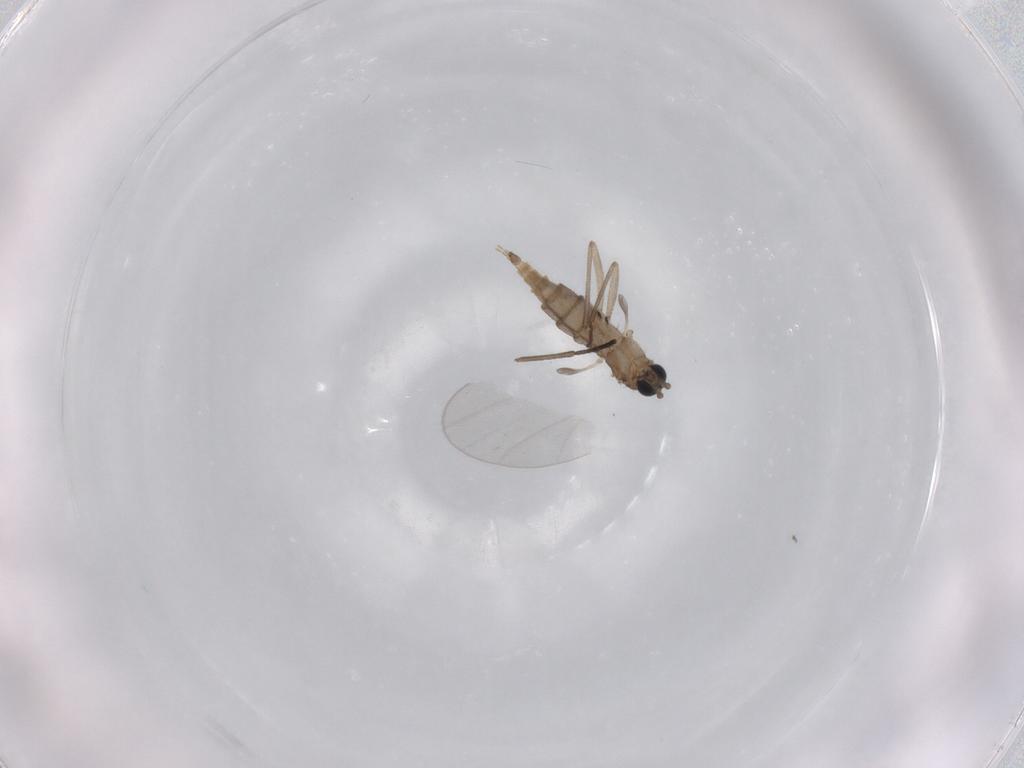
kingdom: Animalia
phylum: Arthropoda
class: Insecta
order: Diptera
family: Sciaridae
